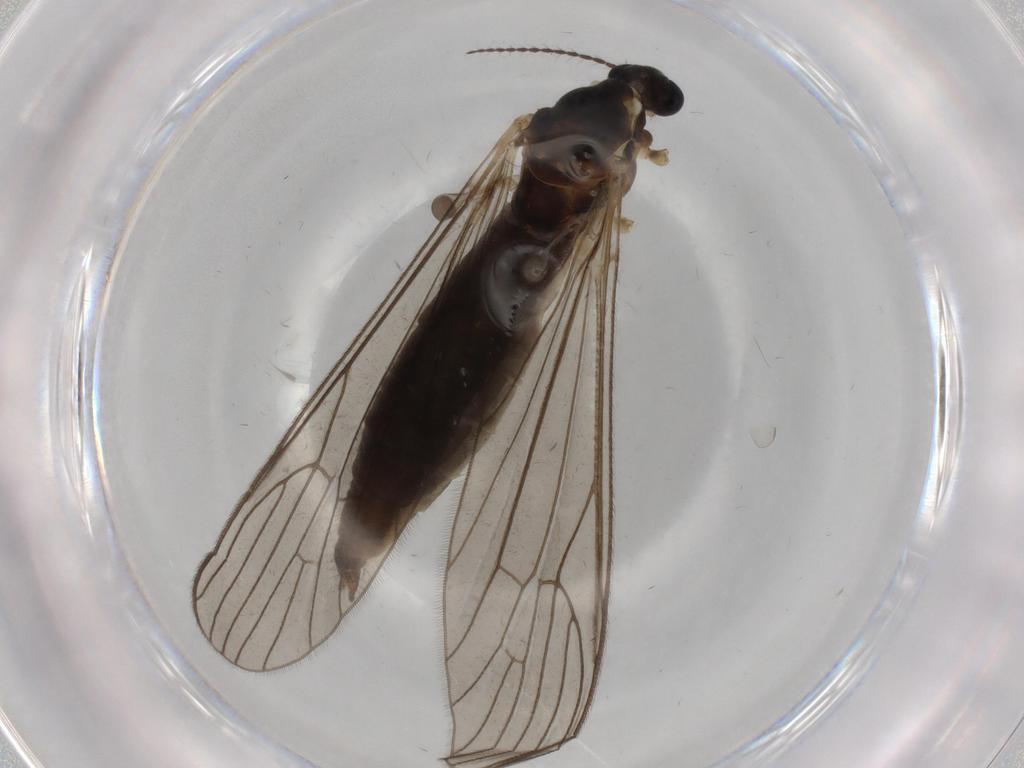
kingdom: Animalia
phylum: Arthropoda
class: Insecta
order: Diptera
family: Limoniidae
